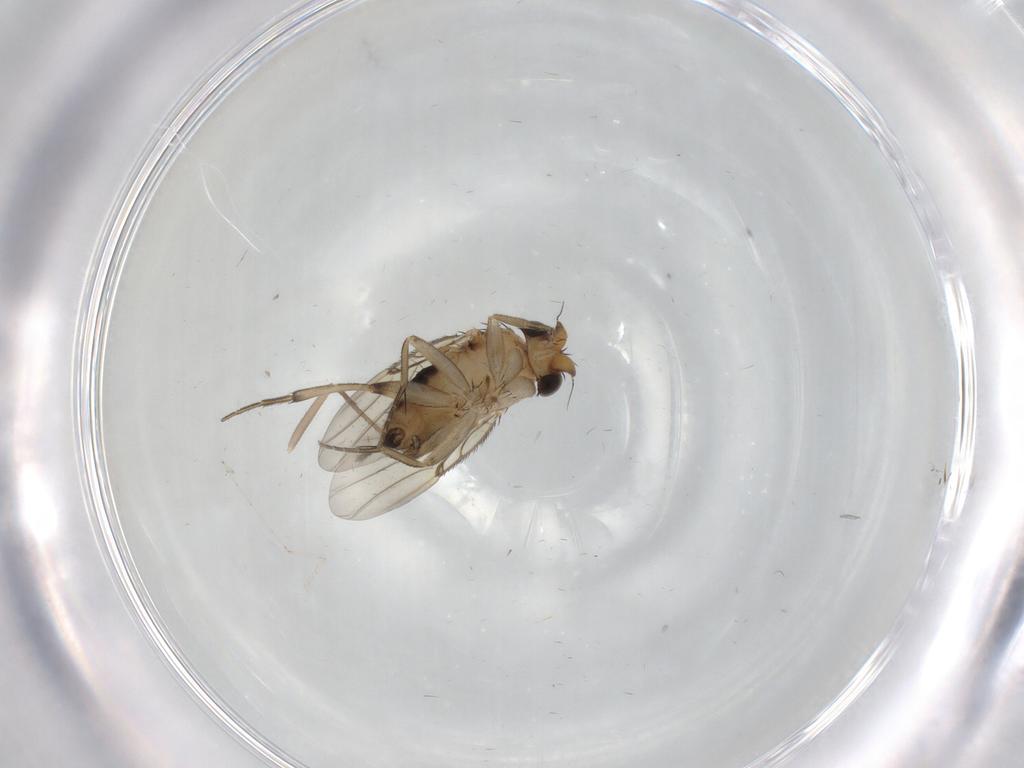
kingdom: Animalia
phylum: Arthropoda
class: Insecta
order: Diptera
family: Chironomidae
